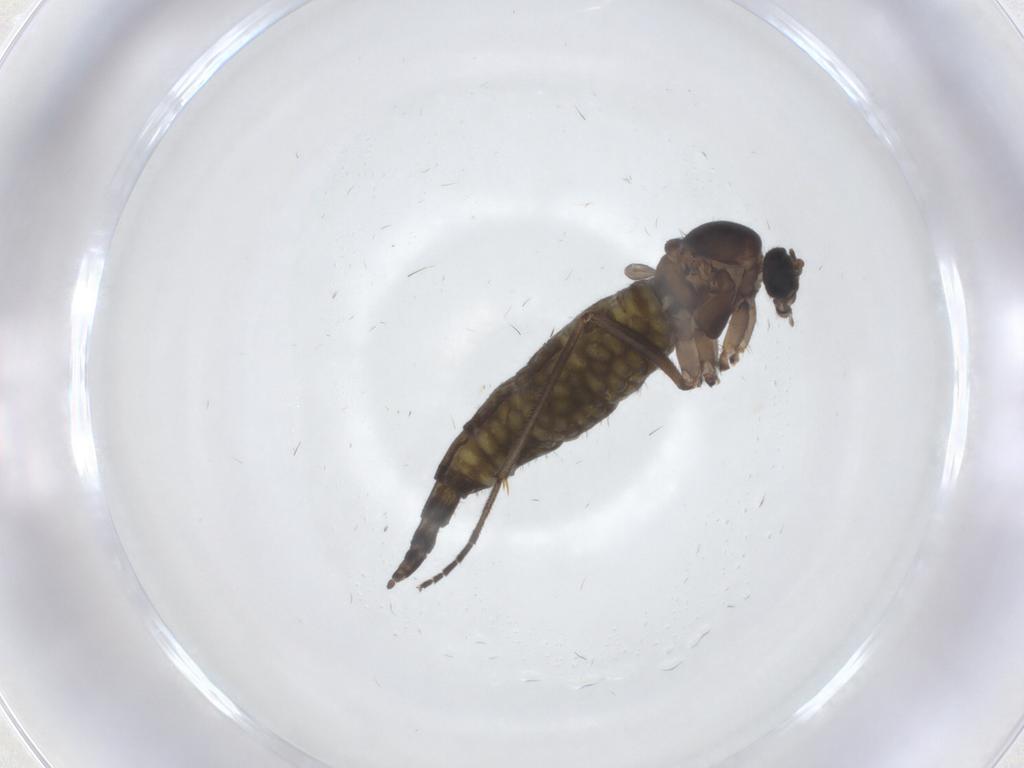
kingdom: Animalia
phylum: Arthropoda
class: Insecta
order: Diptera
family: Sciaridae
